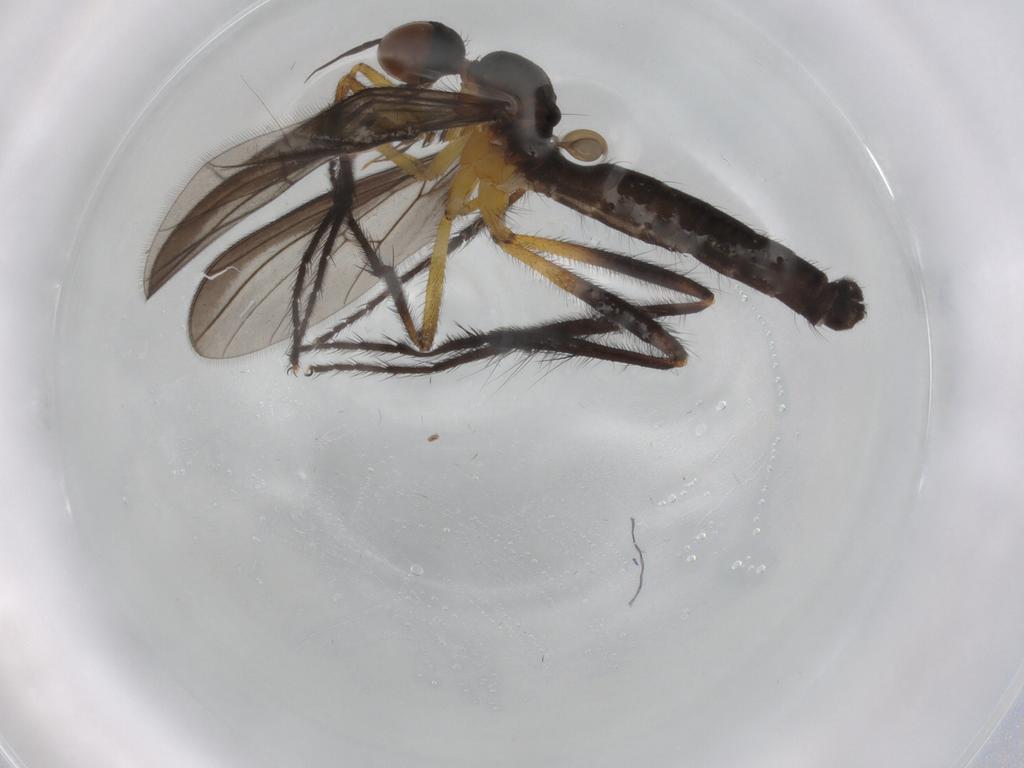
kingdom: Animalia
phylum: Arthropoda
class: Insecta
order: Diptera
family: Empididae
